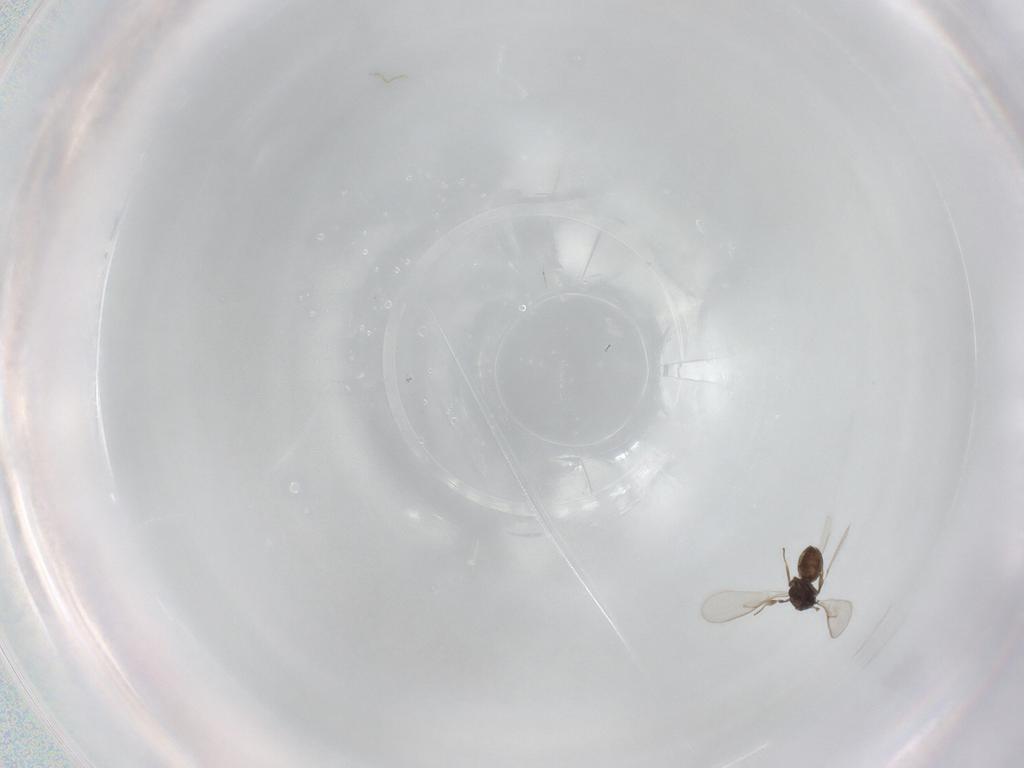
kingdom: Animalia
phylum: Arthropoda
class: Insecta
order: Hymenoptera
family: Scelionidae
